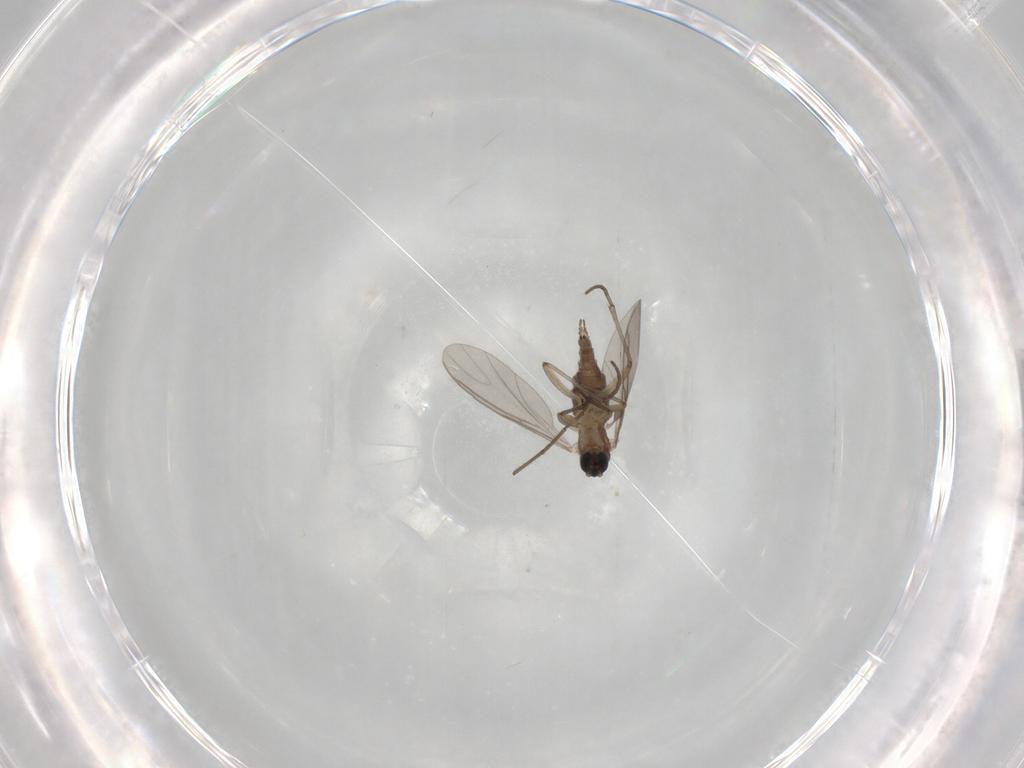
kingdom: Animalia
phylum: Arthropoda
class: Insecta
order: Diptera
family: Chironomidae
